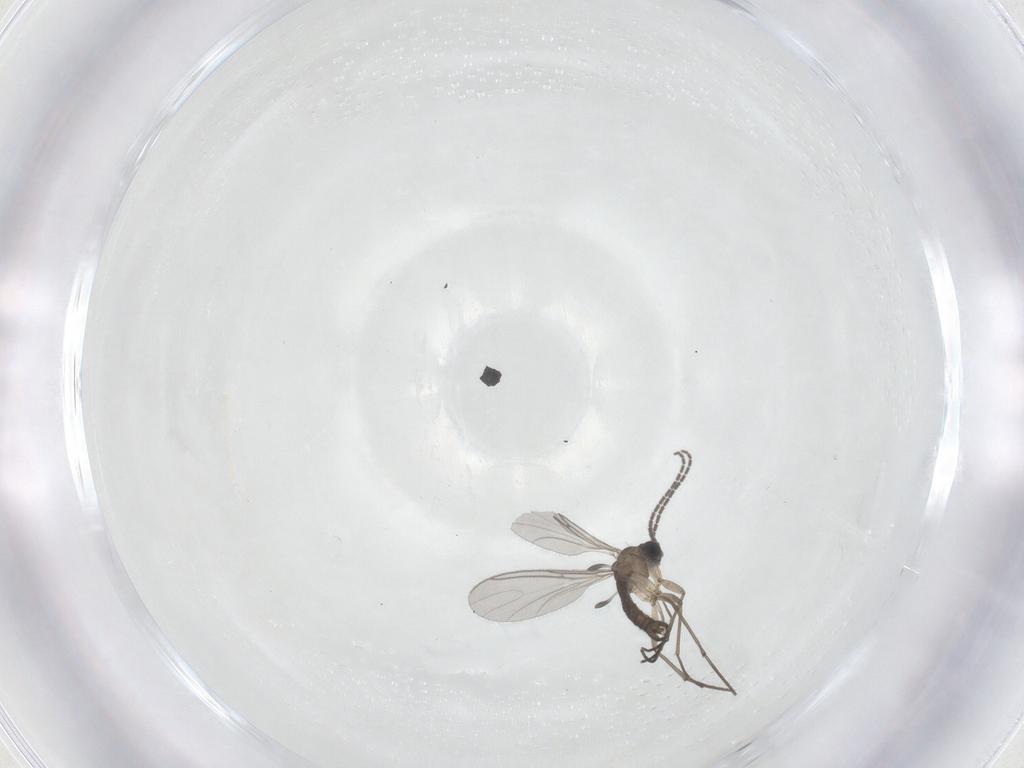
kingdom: Animalia
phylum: Arthropoda
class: Insecta
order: Diptera
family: Sciaridae
